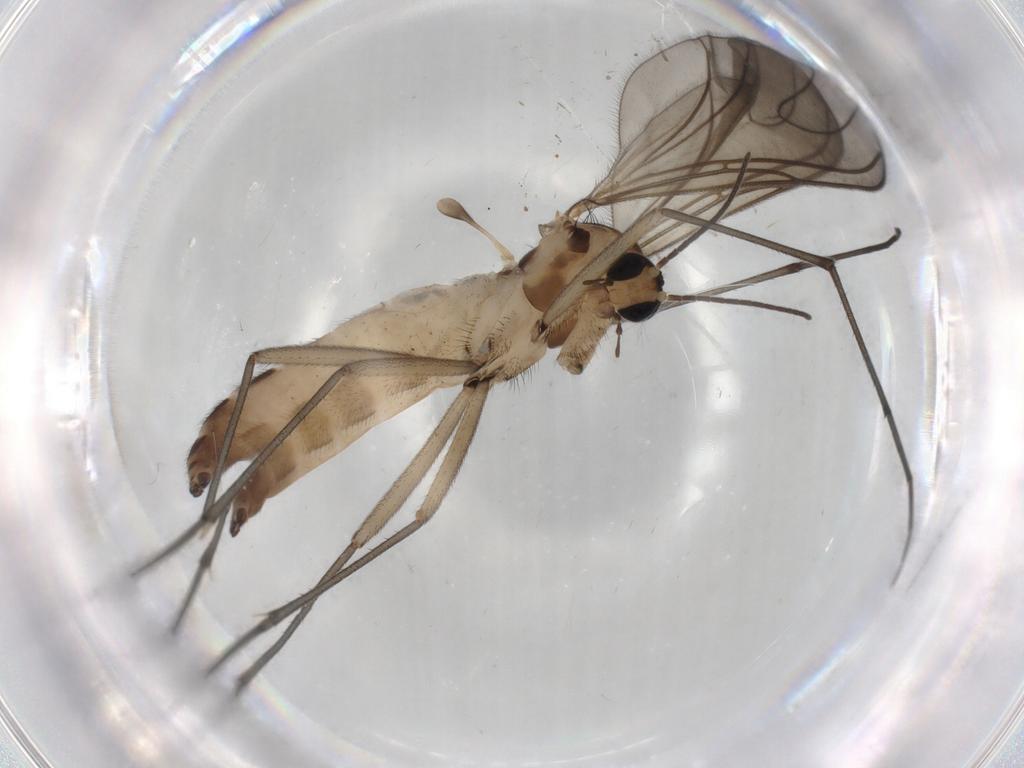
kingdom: Animalia
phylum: Arthropoda
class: Insecta
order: Diptera
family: Sciaridae
